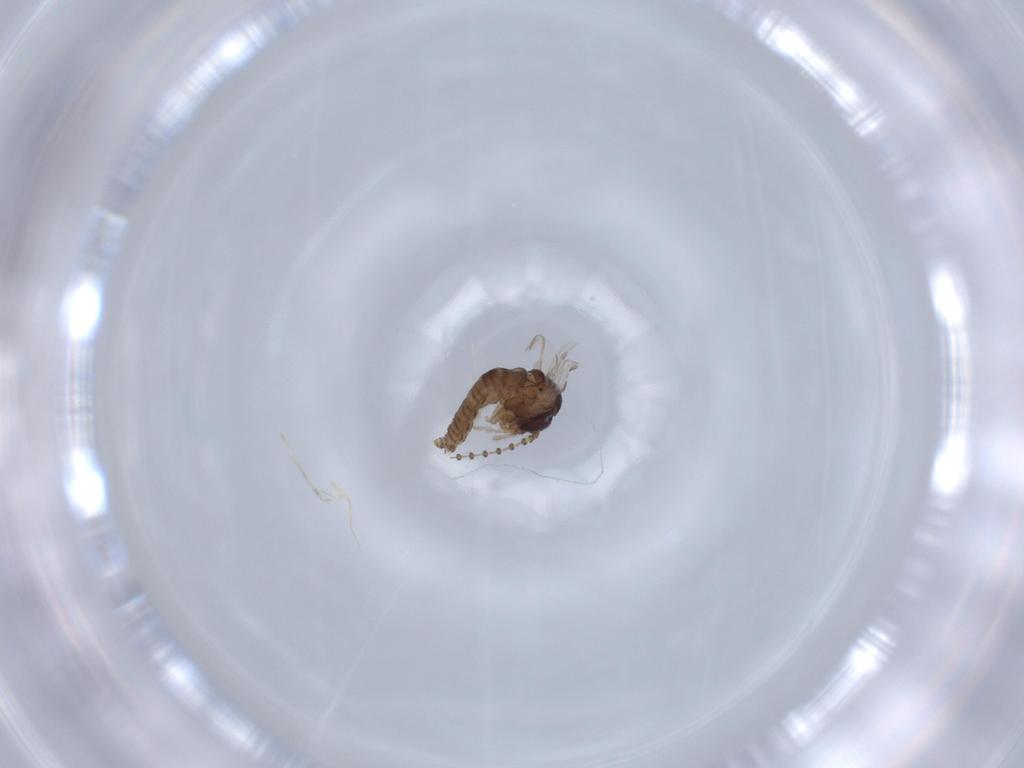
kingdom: Animalia
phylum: Arthropoda
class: Insecta
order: Diptera
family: Psychodidae
